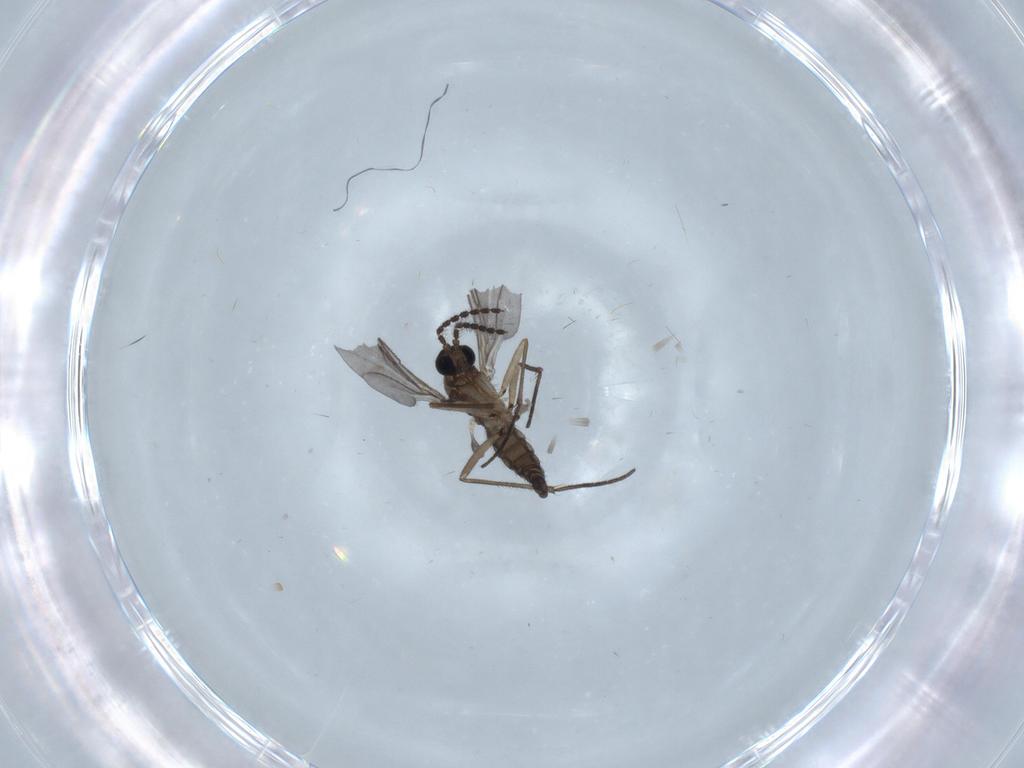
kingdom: Animalia
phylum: Arthropoda
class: Insecta
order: Diptera
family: Sciaridae
